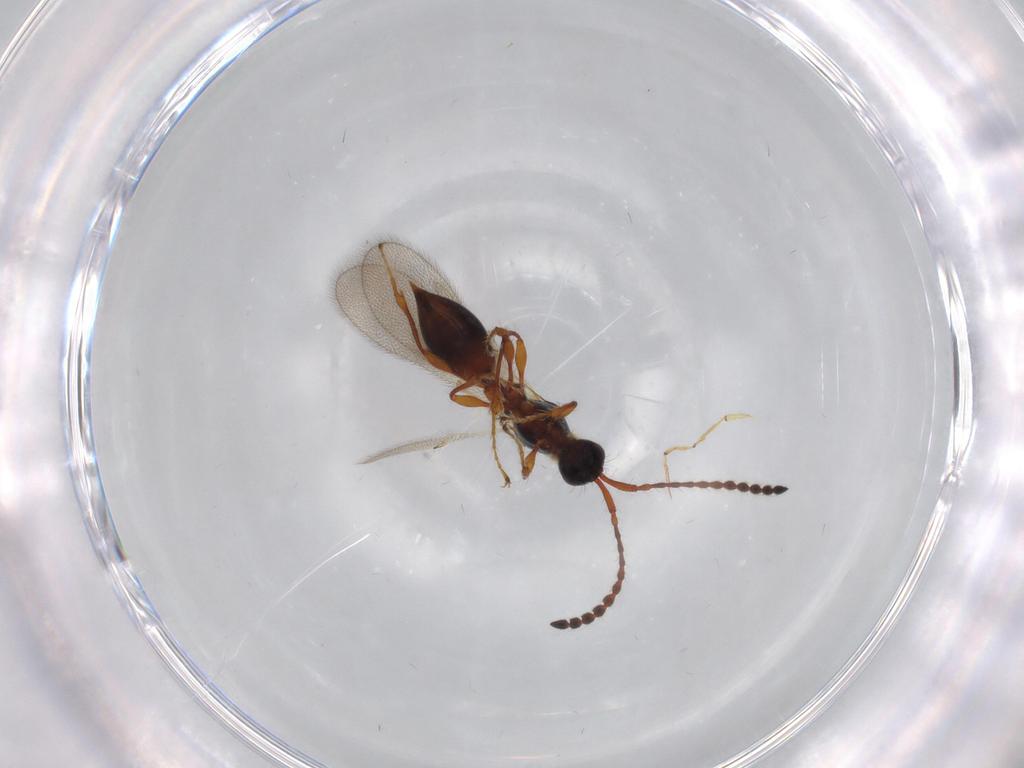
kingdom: Animalia
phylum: Arthropoda
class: Insecta
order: Hymenoptera
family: Diapriidae
